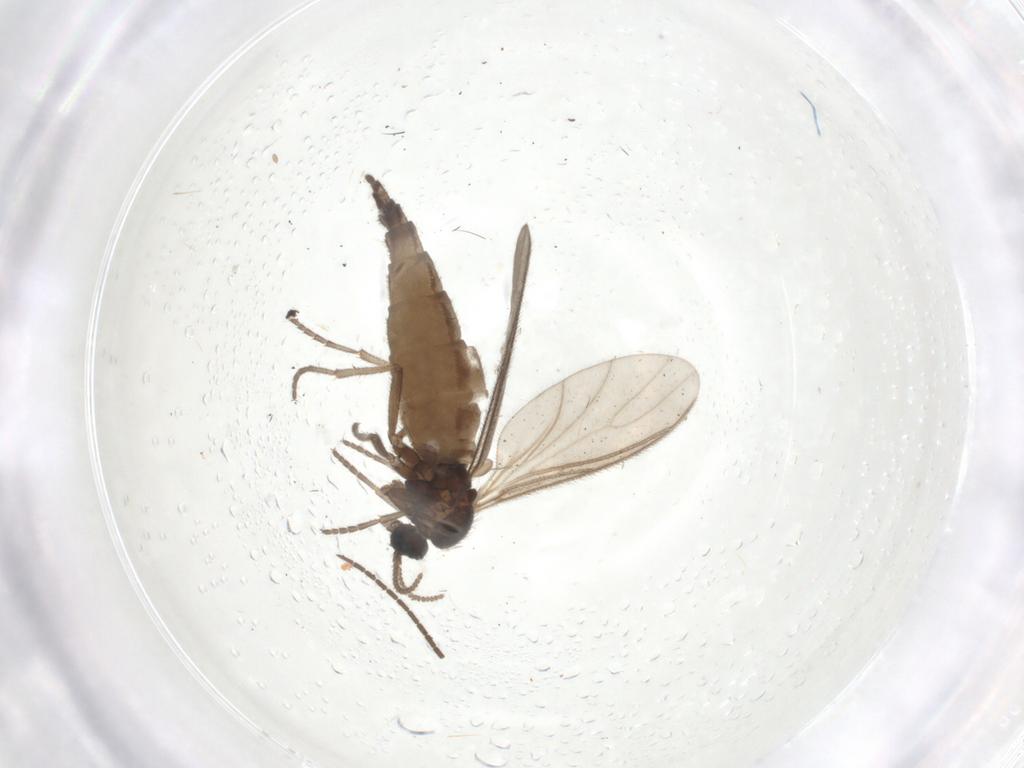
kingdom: Animalia
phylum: Arthropoda
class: Insecta
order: Diptera
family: Sciaridae
